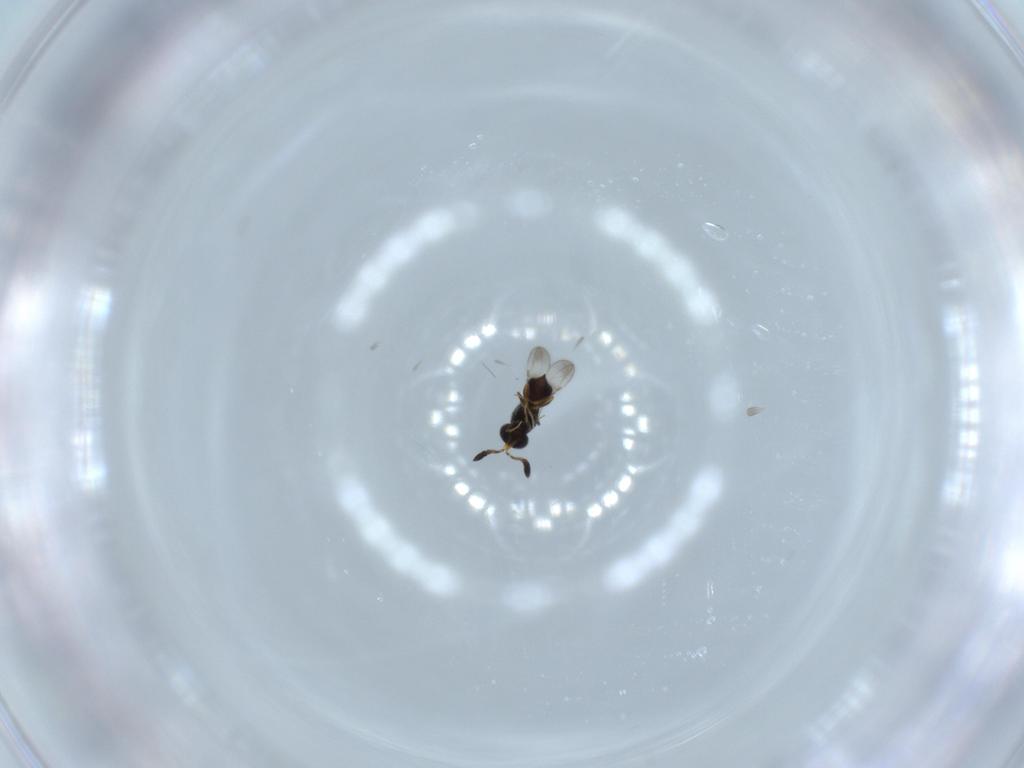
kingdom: Animalia
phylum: Arthropoda
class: Insecta
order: Hymenoptera
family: Ceraphronidae
